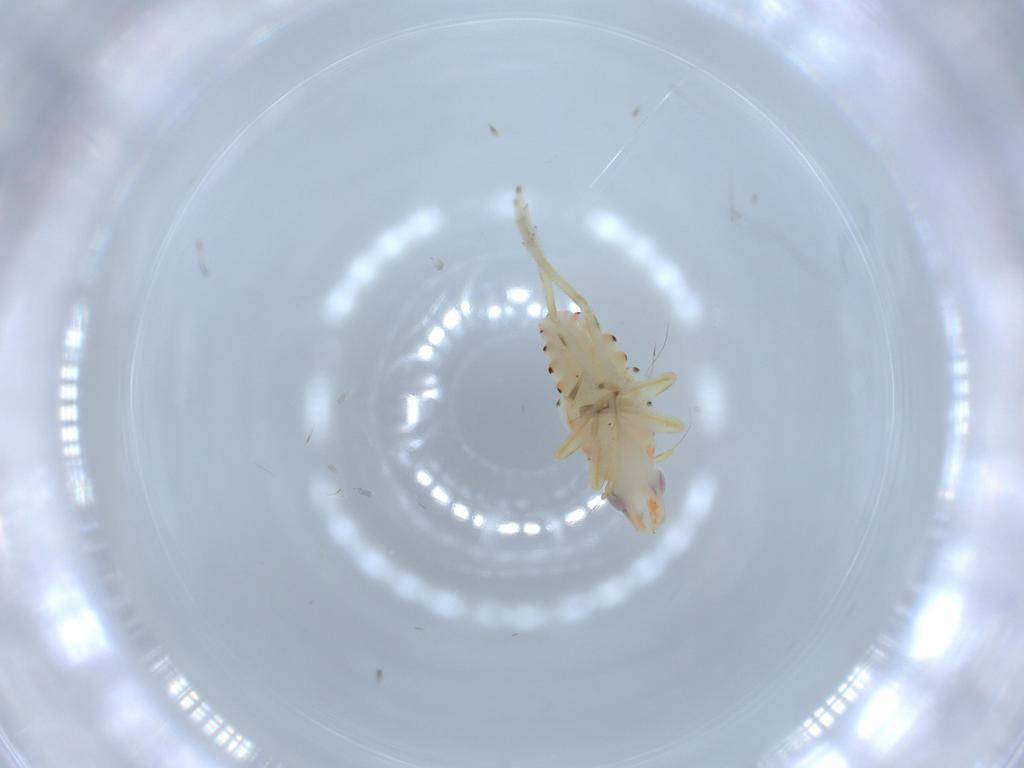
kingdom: Animalia
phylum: Arthropoda
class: Insecta
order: Hemiptera
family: Tropiduchidae
